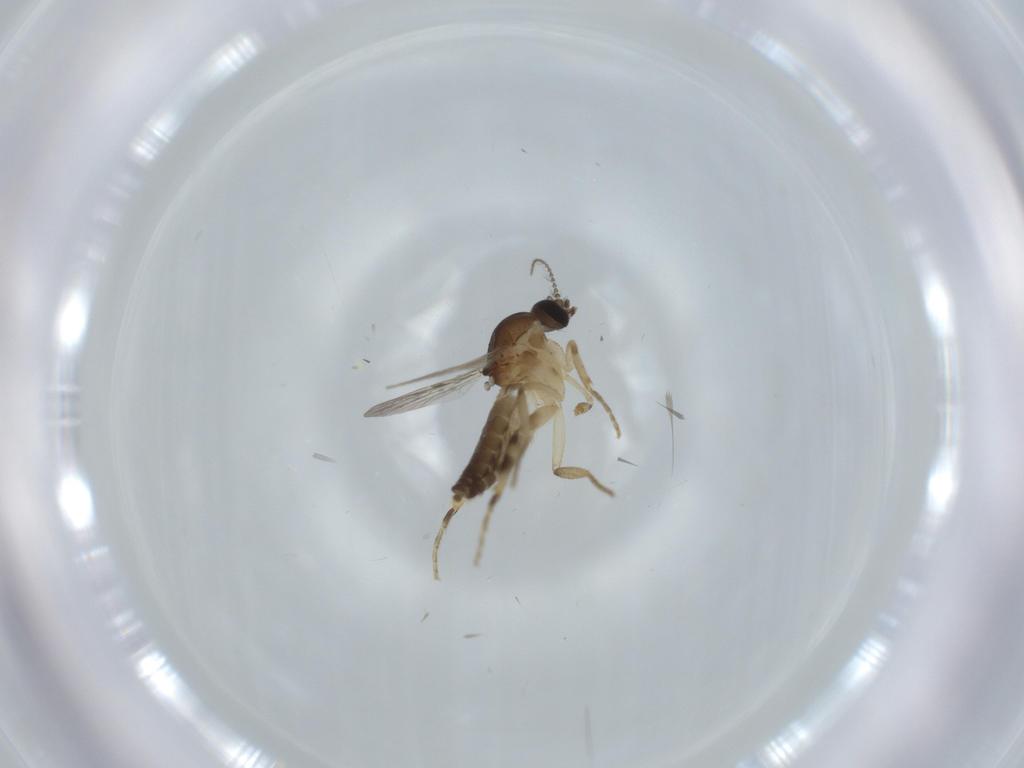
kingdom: Animalia
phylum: Arthropoda
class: Insecta
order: Diptera
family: Ceratopogonidae
